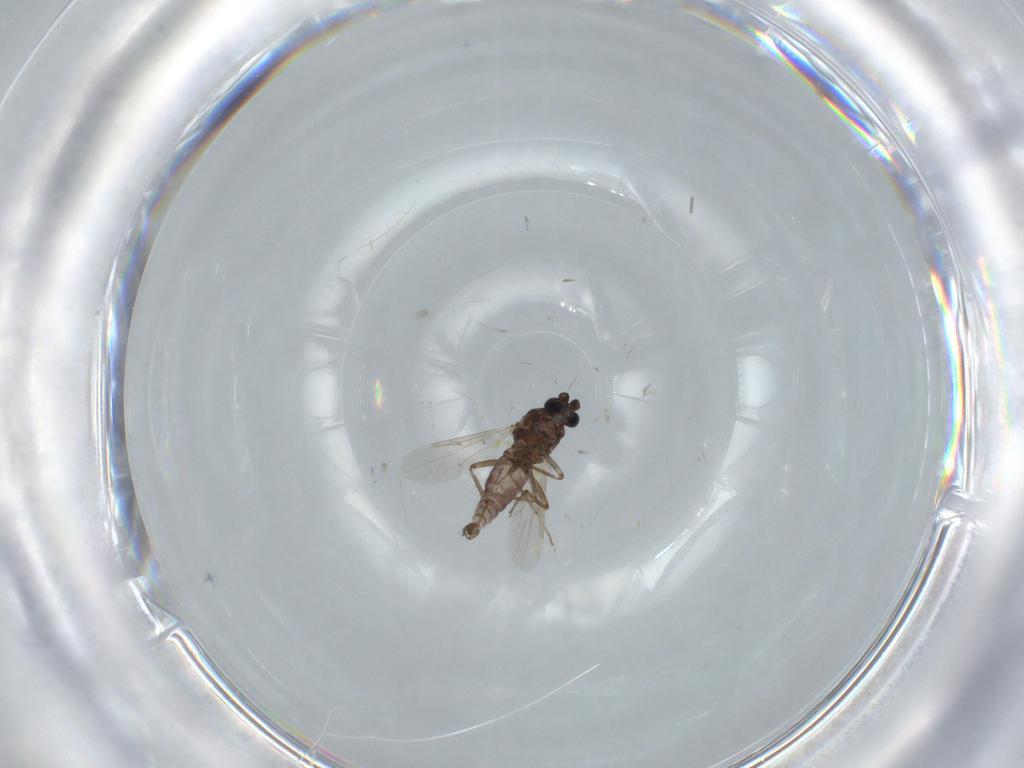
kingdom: Animalia
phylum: Arthropoda
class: Insecta
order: Diptera
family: Ceratopogonidae
